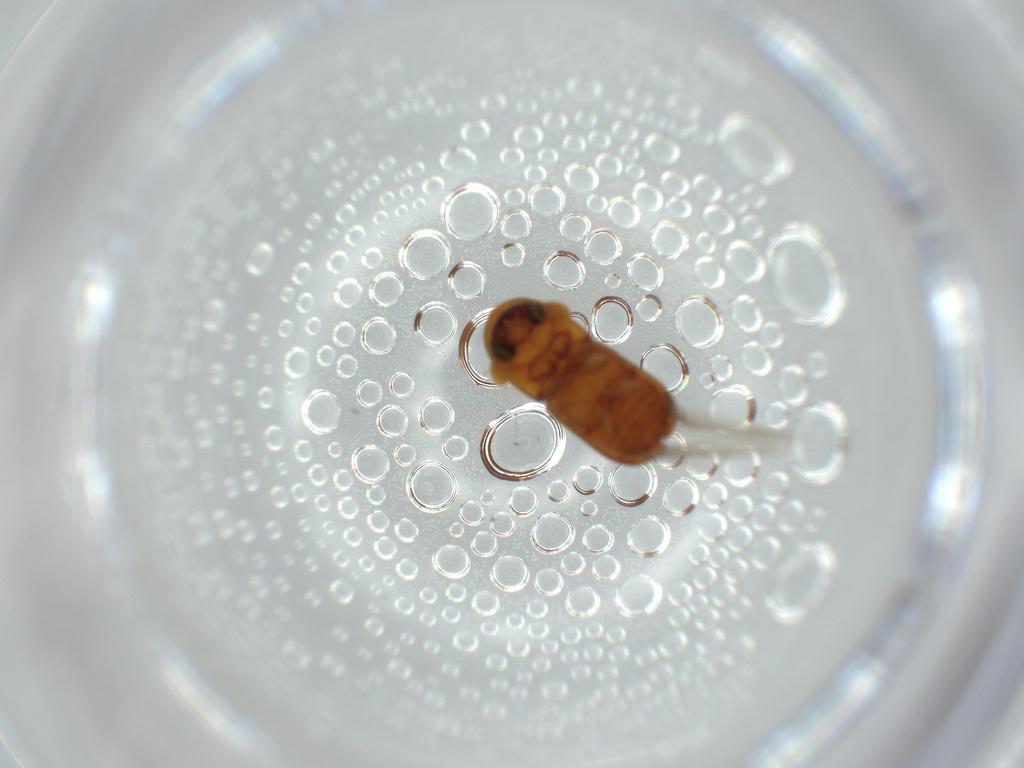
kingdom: Animalia
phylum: Arthropoda
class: Insecta
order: Coleoptera
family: Curculionidae
